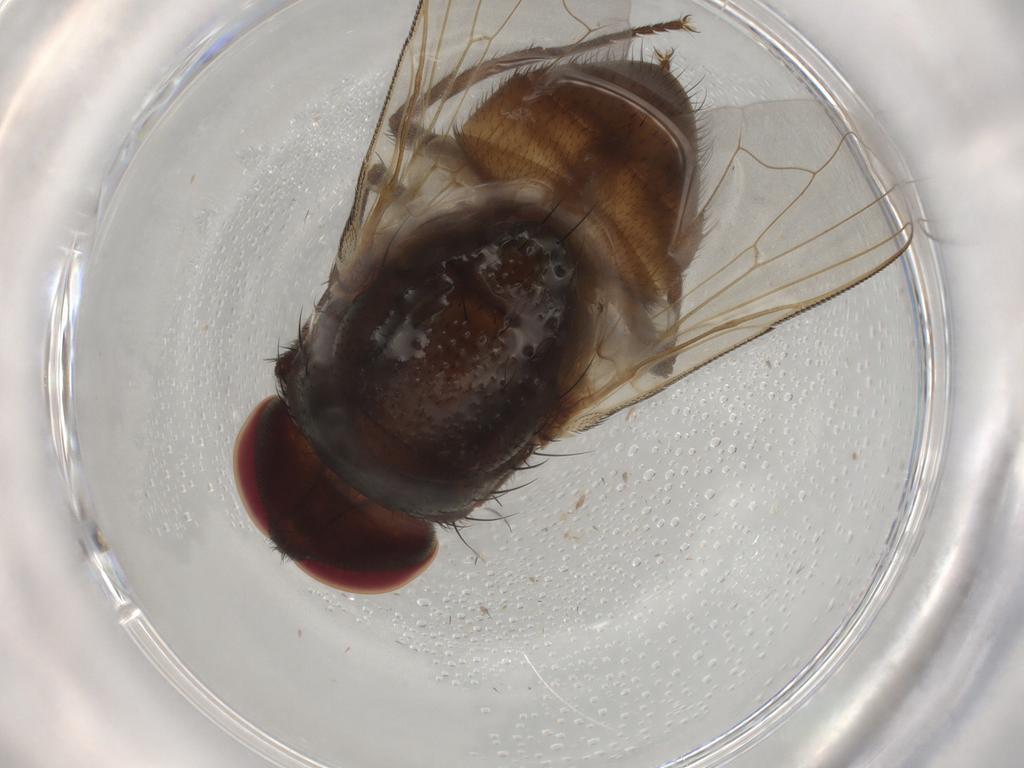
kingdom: Animalia
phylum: Arthropoda
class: Insecta
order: Diptera
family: Muscidae
